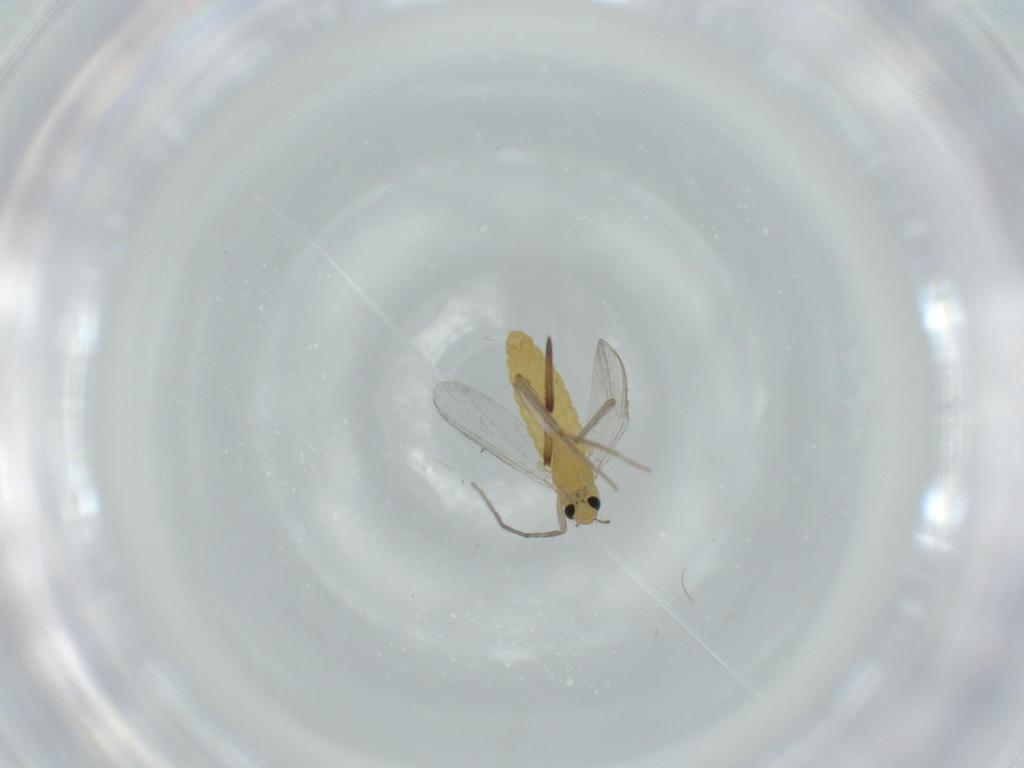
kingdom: Animalia
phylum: Arthropoda
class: Insecta
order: Diptera
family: Chironomidae
